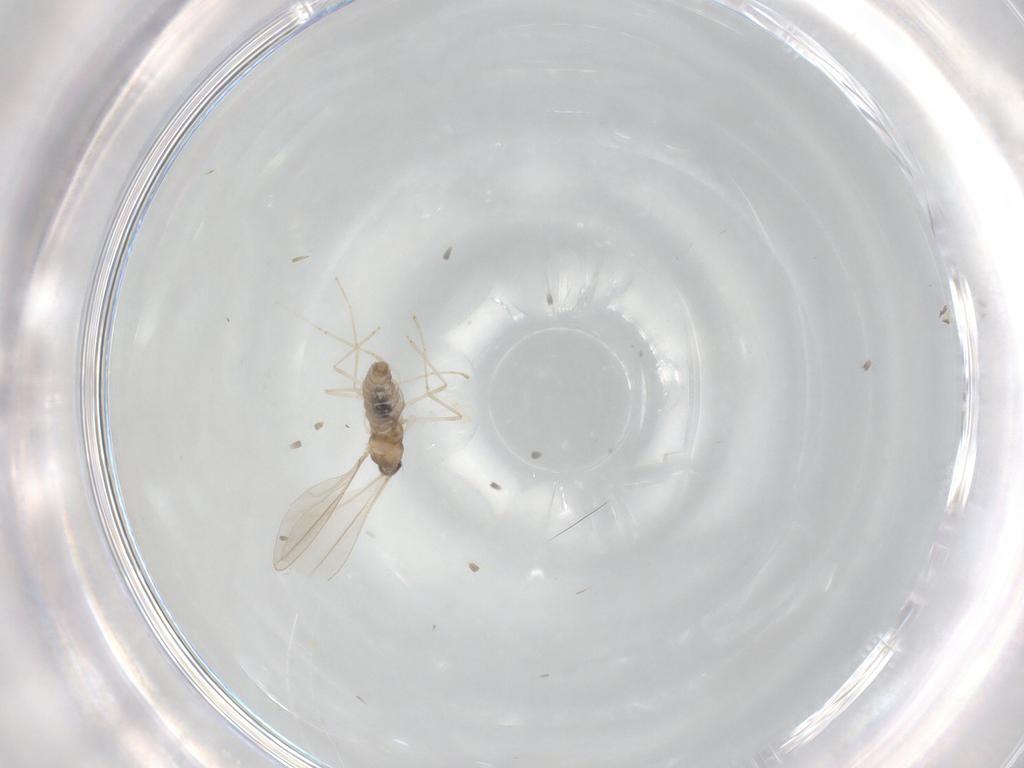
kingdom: Animalia
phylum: Arthropoda
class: Insecta
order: Diptera
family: Cecidomyiidae
